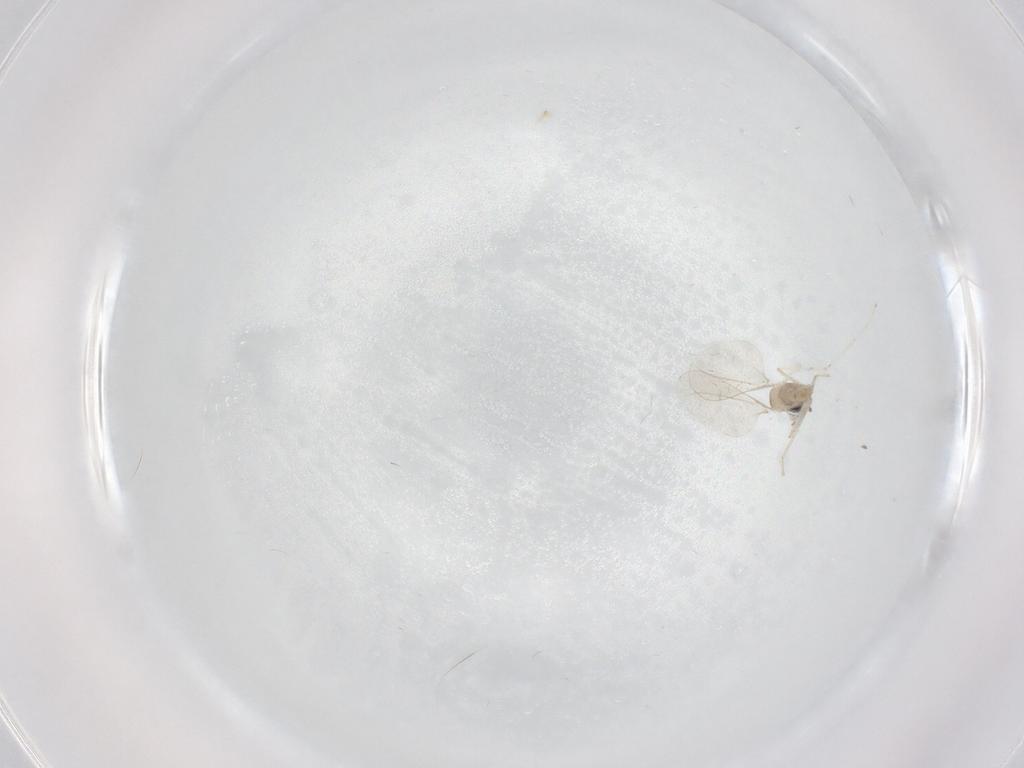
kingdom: Animalia
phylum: Arthropoda
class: Insecta
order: Diptera
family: Cecidomyiidae
